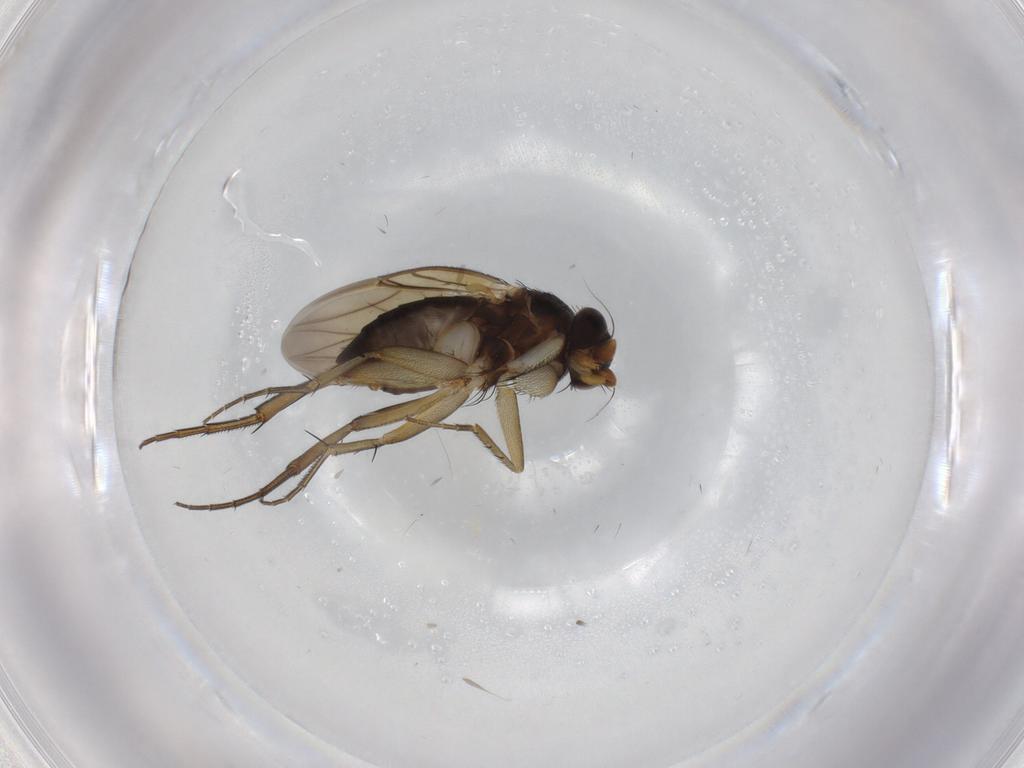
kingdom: Animalia
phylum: Arthropoda
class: Insecta
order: Diptera
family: Phoridae
